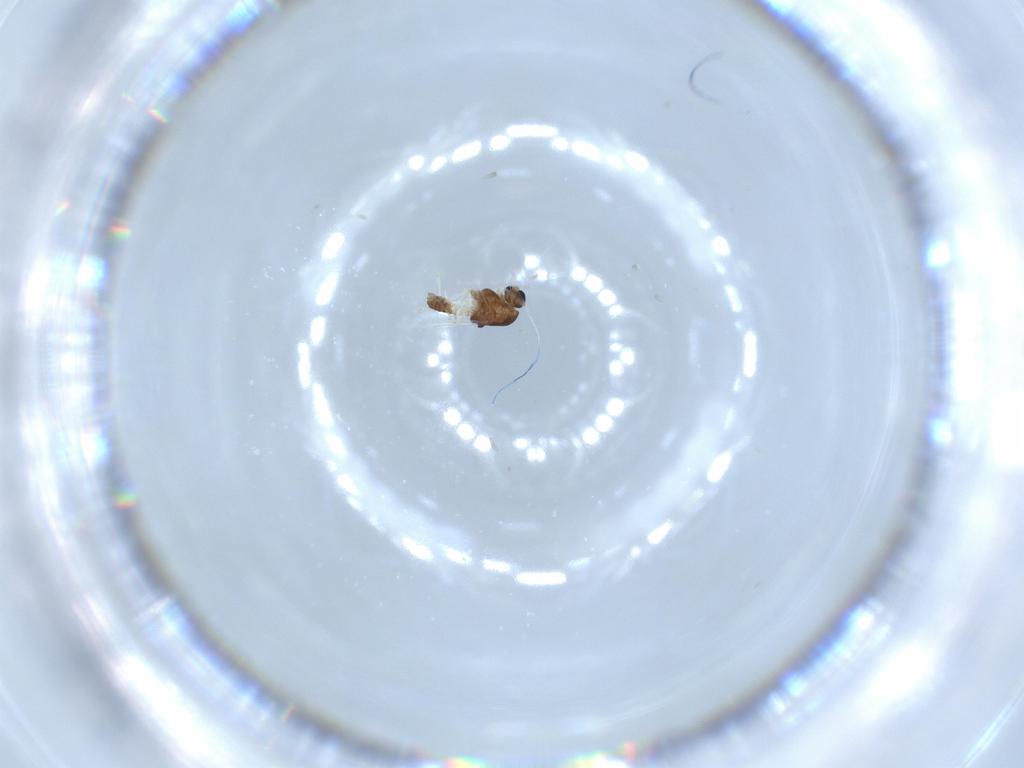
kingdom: Animalia
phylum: Arthropoda
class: Insecta
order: Diptera
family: Chironomidae
